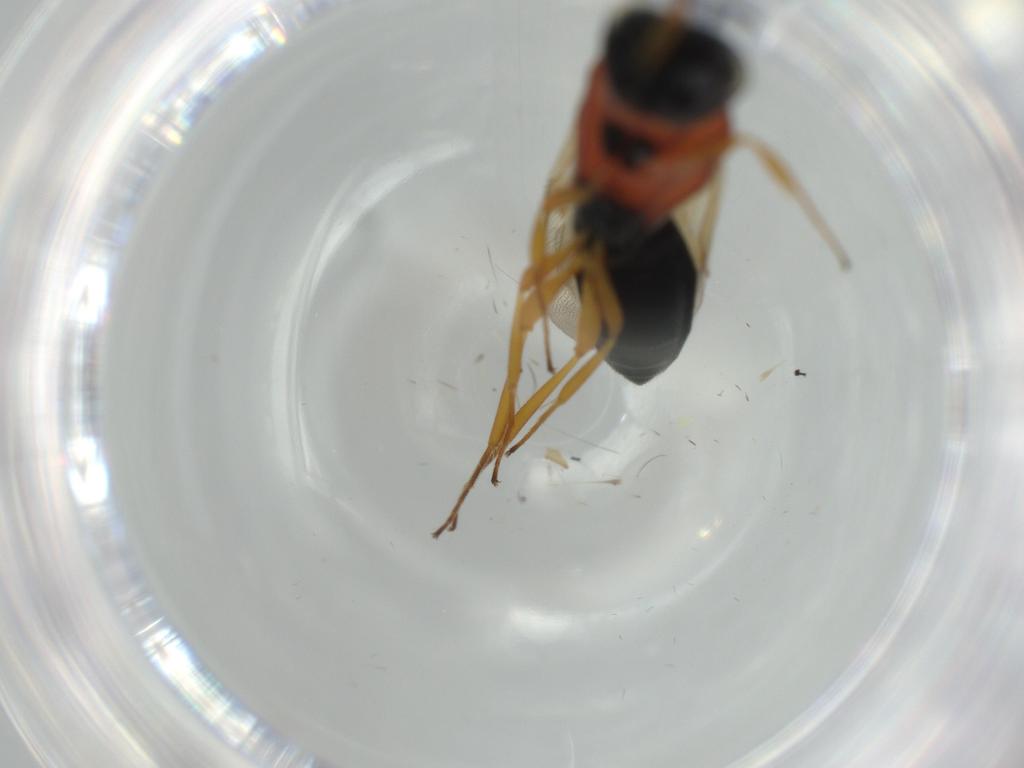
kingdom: Animalia
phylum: Arthropoda
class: Insecta
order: Hymenoptera
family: Scelionidae
